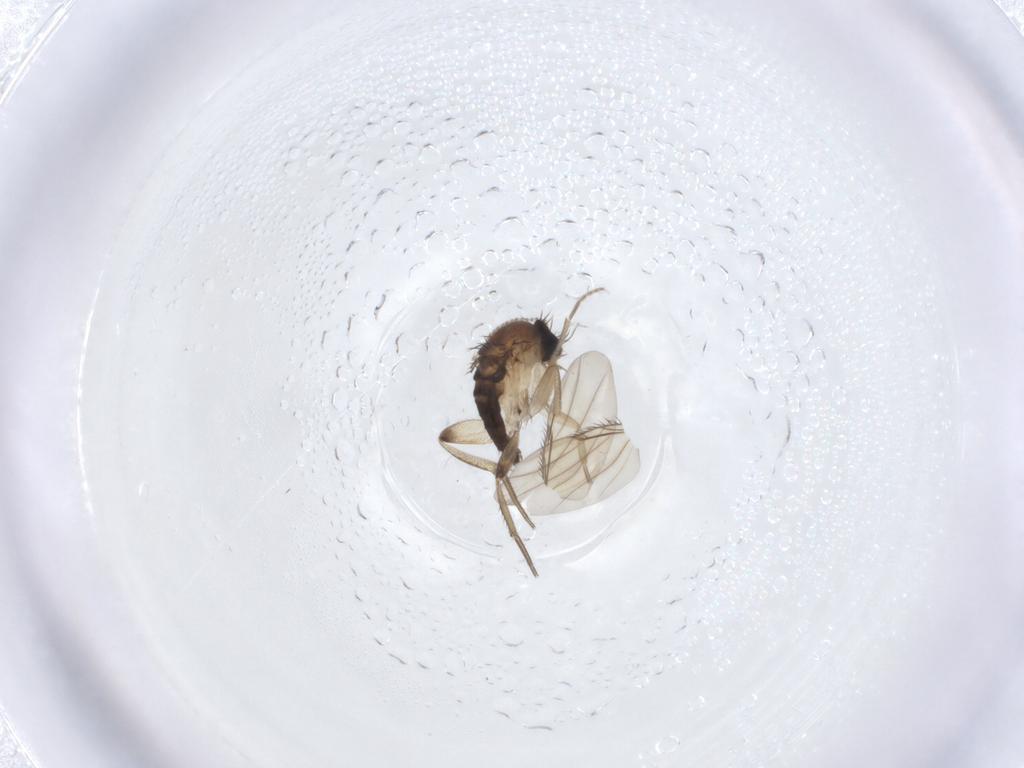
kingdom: Animalia
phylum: Arthropoda
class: Insecta
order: Diptera
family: Phoridae
